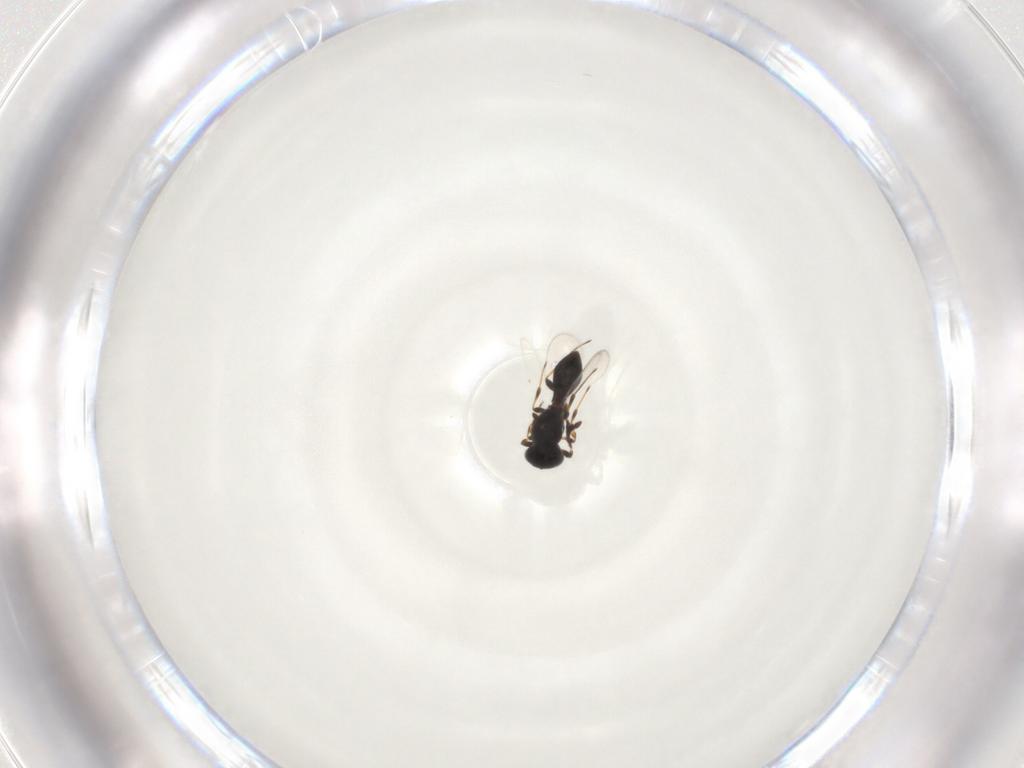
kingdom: Animalia
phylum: Arthropoda
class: Insecta
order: Hymenoptera
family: Platygastridae
